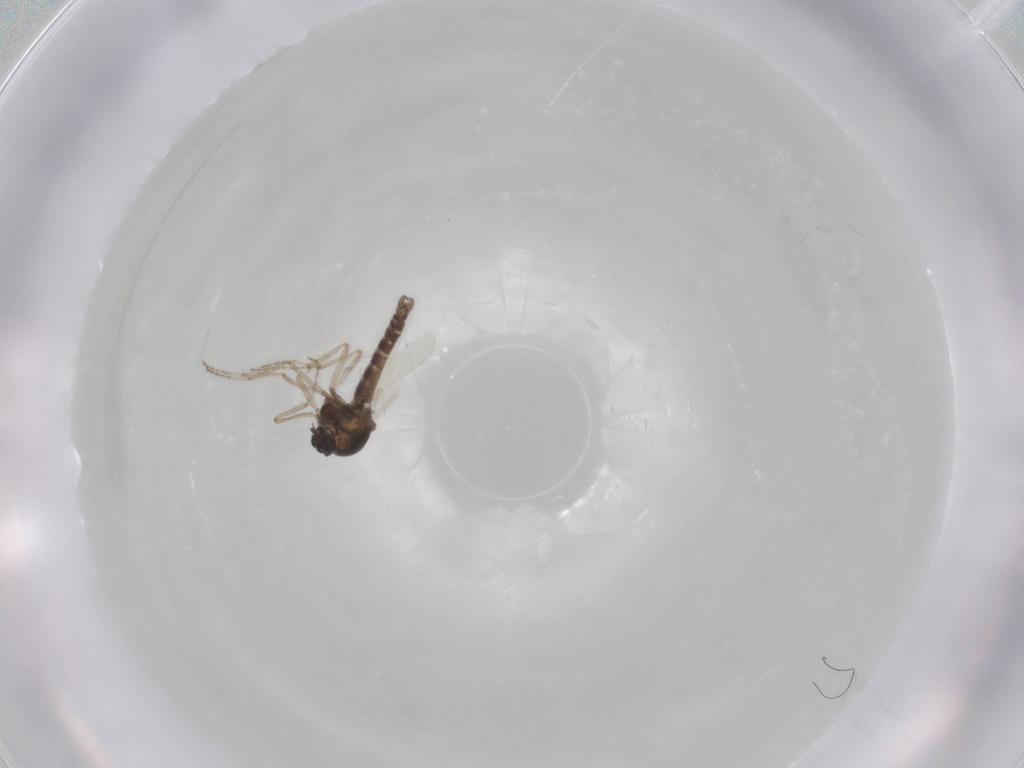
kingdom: Animalia
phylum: Arthropoda
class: Insecta
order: Diptera
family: Ceratopogonidae
